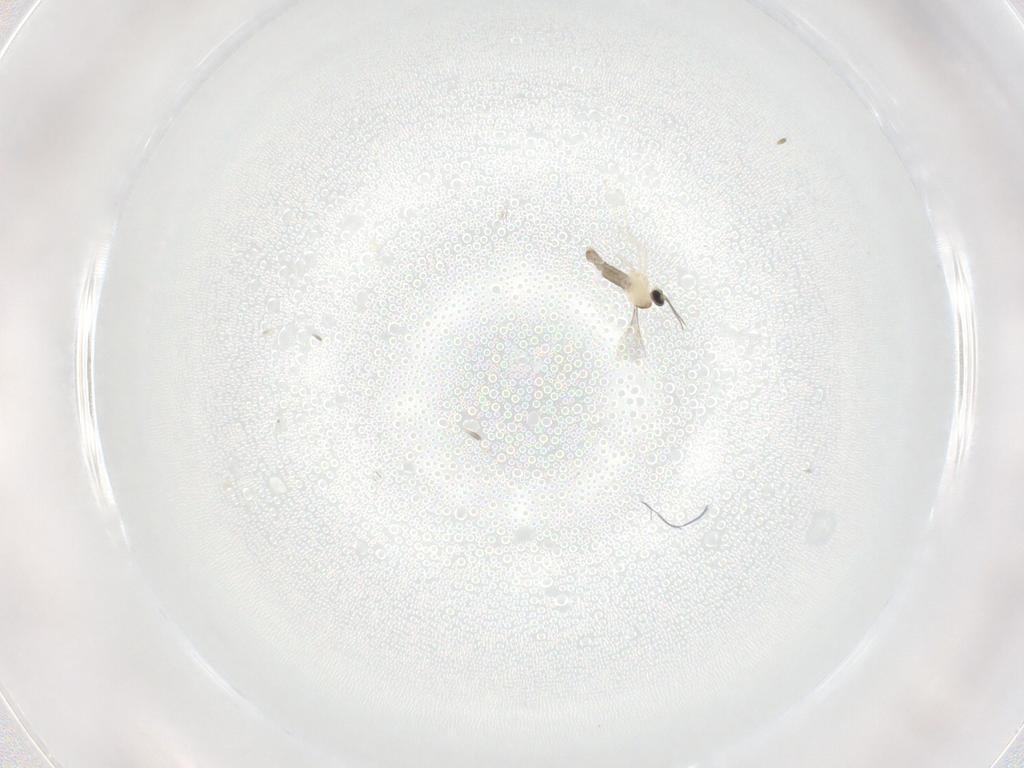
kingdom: Animalia
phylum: Arthropoda
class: Insecta
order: Diptera
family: Cecidomyiidae
